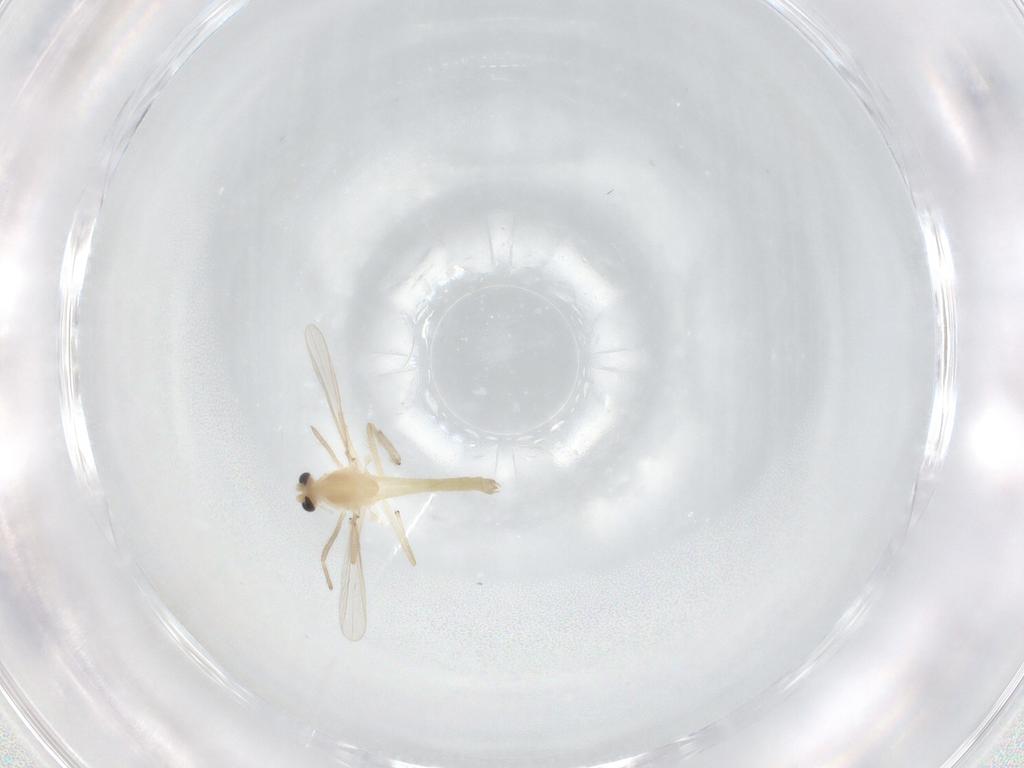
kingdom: Animalia
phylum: Arthropoda
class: Insecta
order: Diptera
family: Chironomidae
